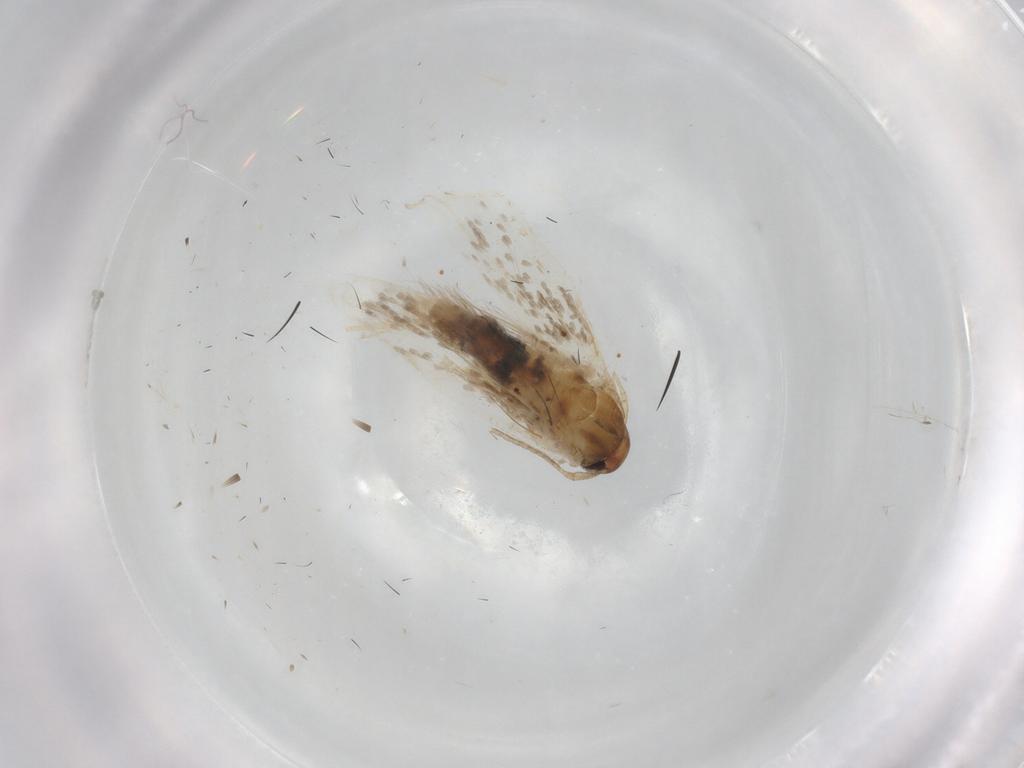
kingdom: Animalia
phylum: Arthropoda
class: Insecta
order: Lepidoptera
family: Cosmopterigidae
